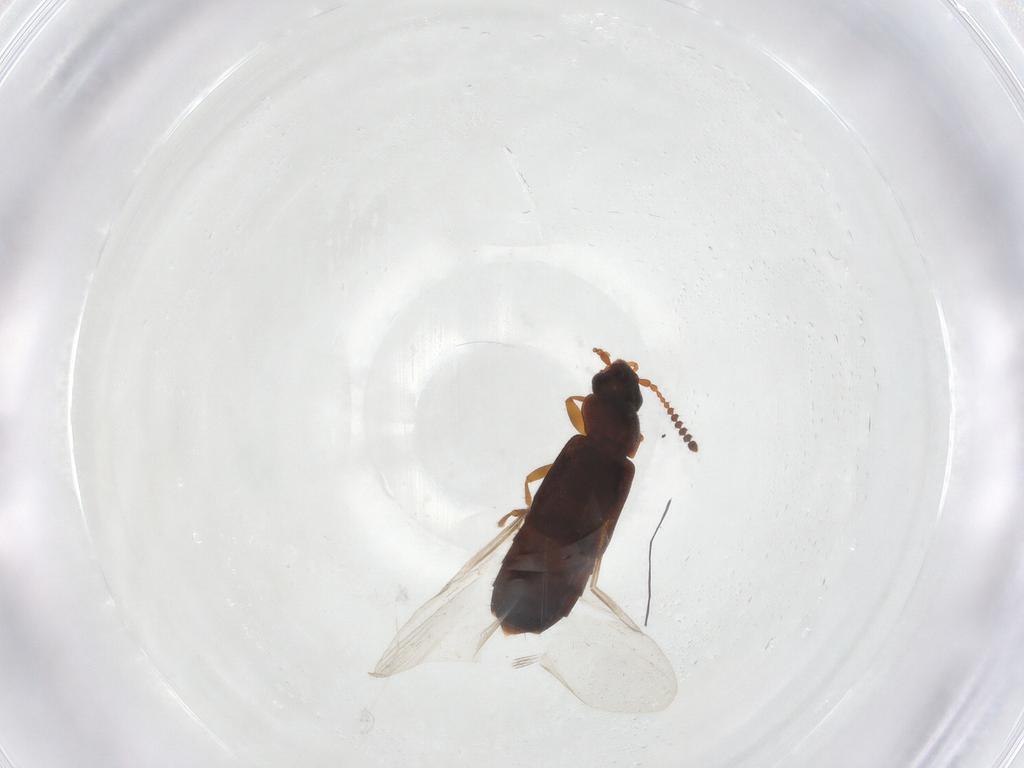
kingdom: Animalia
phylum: Arthropoda
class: Insecta
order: Coleoptera
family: Staphylinidae
